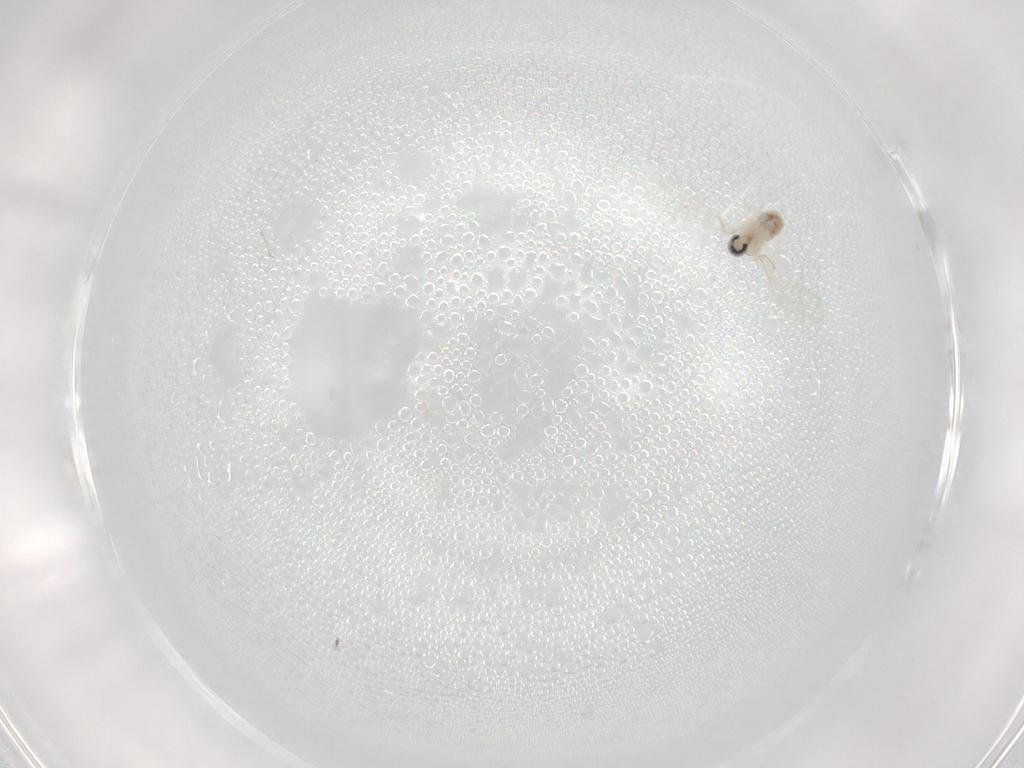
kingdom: Animalia
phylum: Arthropoda
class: Insecta
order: Diptera
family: Cecidomyiidae
